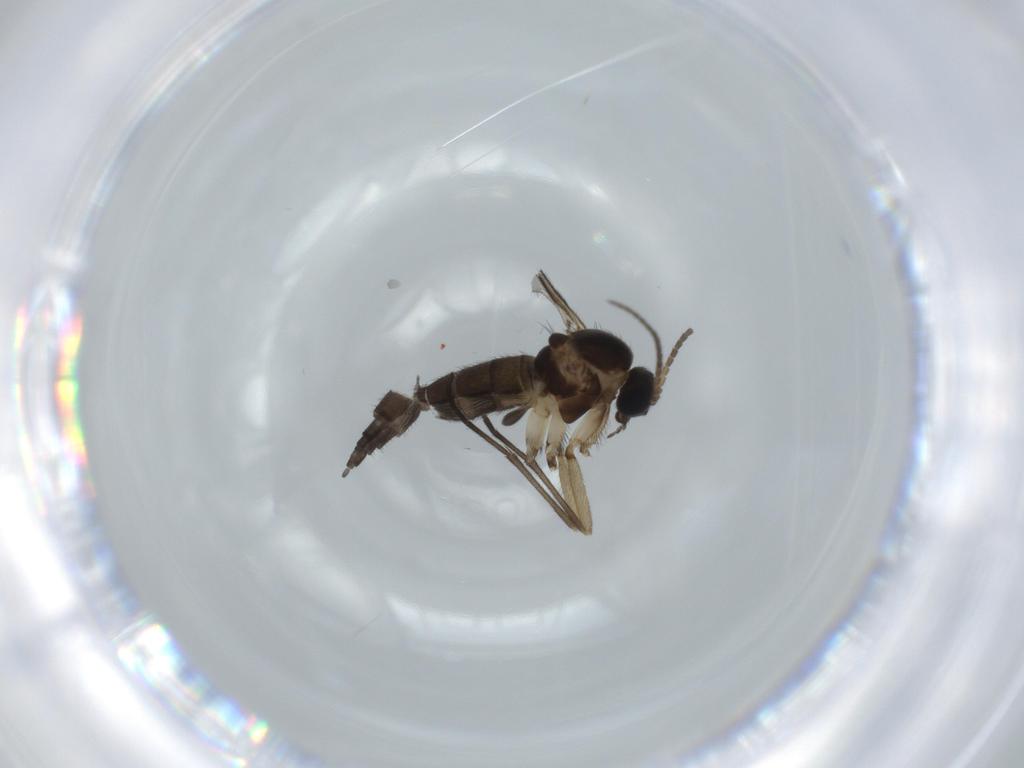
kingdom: Animalia
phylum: Arthropoda
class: Insecta
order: Diptera
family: Sciaridae
